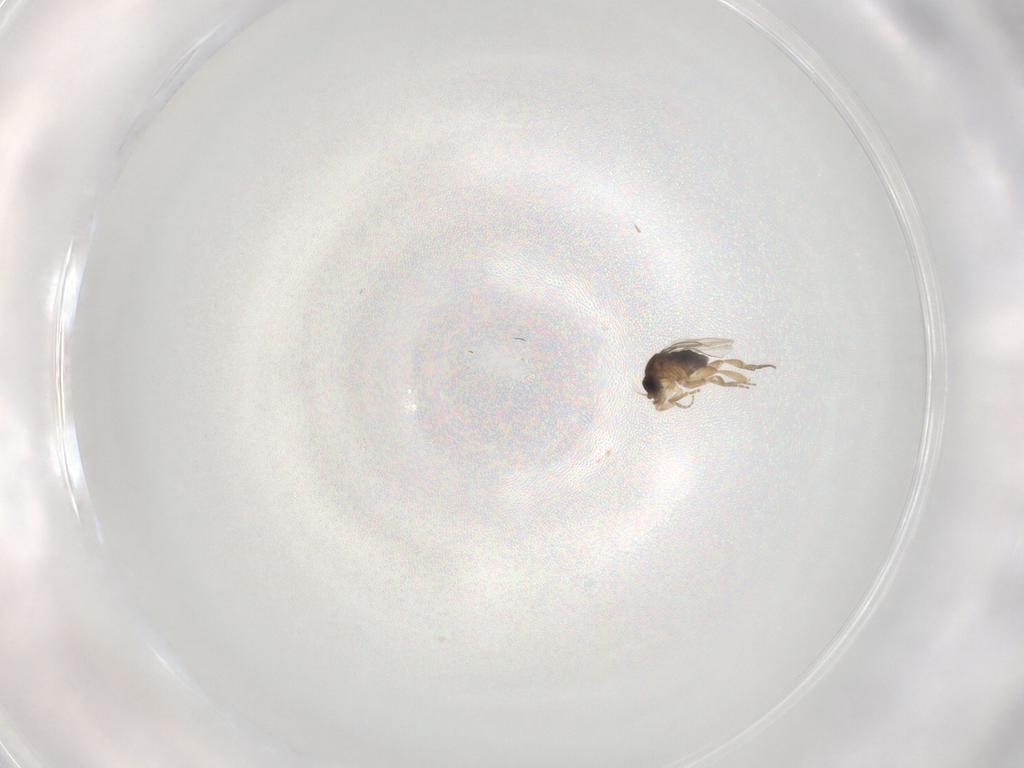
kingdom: Animalia
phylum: Arthropoda
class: Insecta
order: Diptera
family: Phoridae
